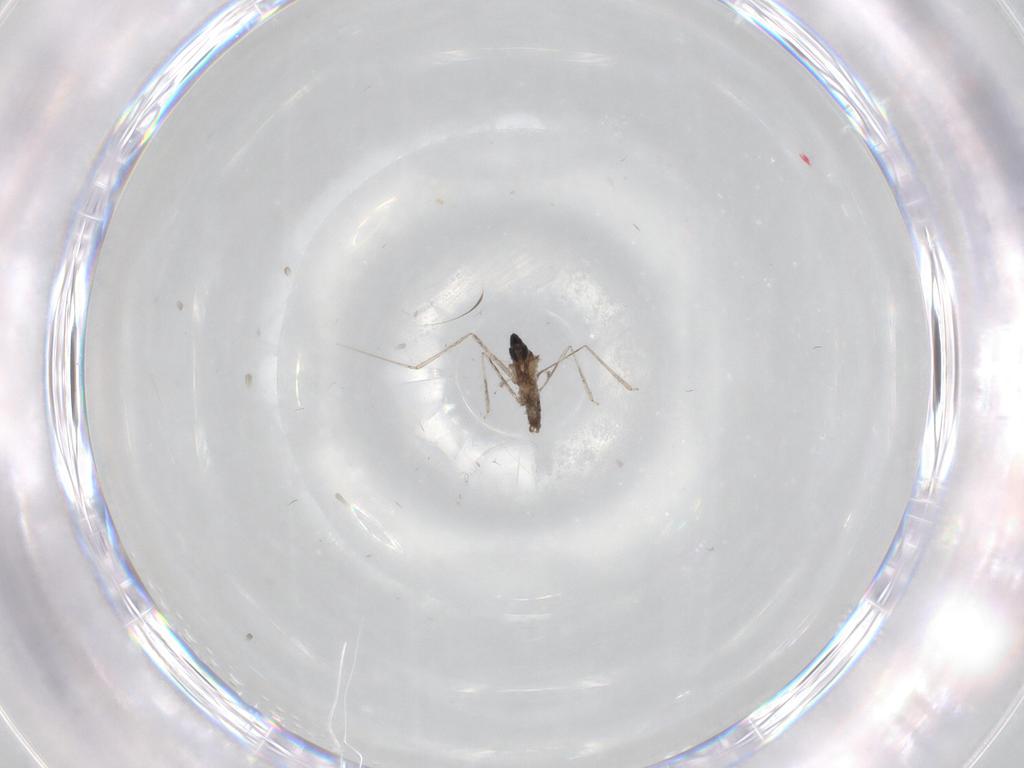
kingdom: Animalia
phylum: Arthropoda
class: Insecta
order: Diptera
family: Cecidomyiidae
